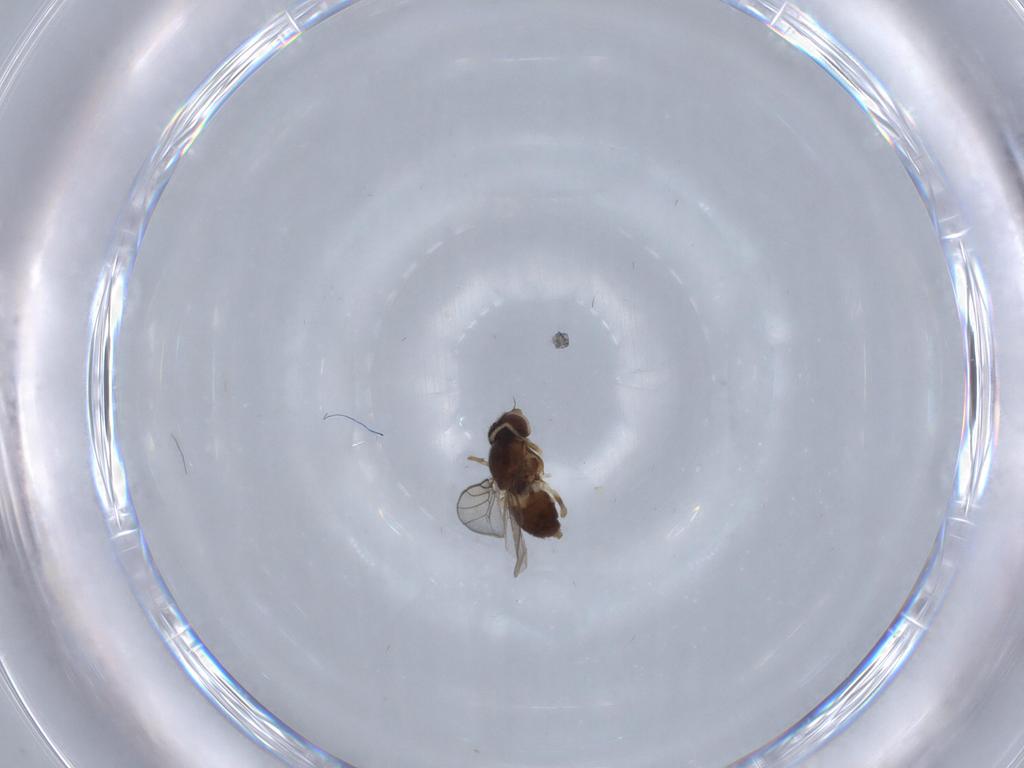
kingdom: Animalia
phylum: Arthropoda
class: Insecta
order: Diptera
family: Chloropidae
